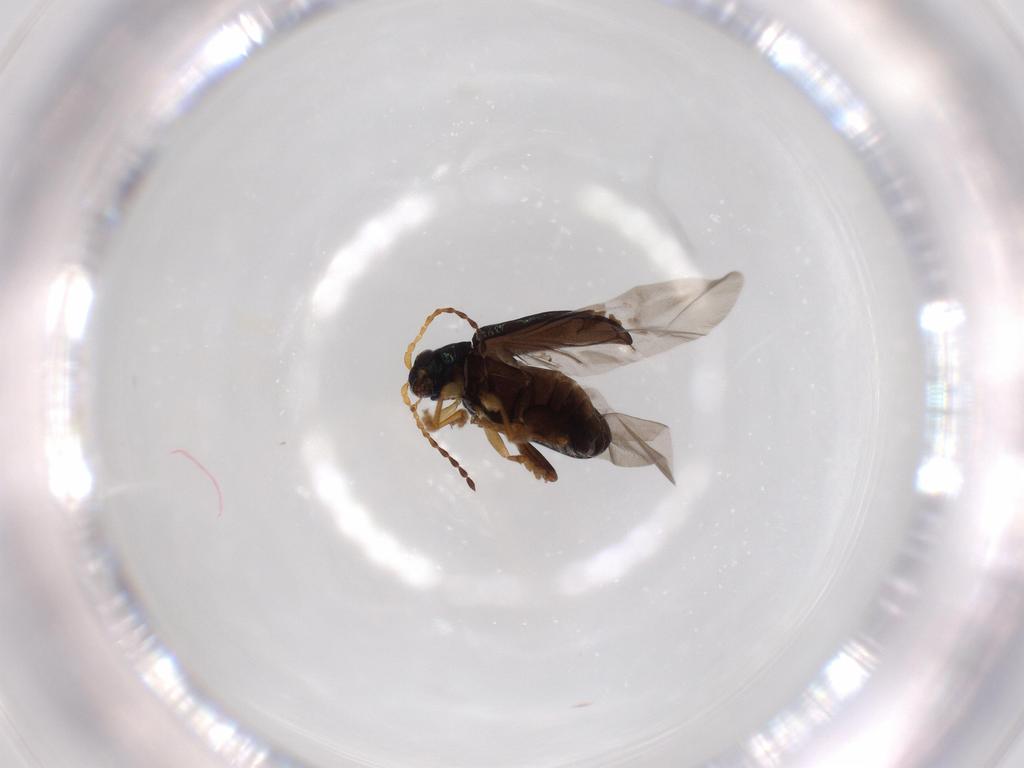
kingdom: Animalia
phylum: Arthropoda
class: Insecta
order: Coleoptera
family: Chrysomelidae
